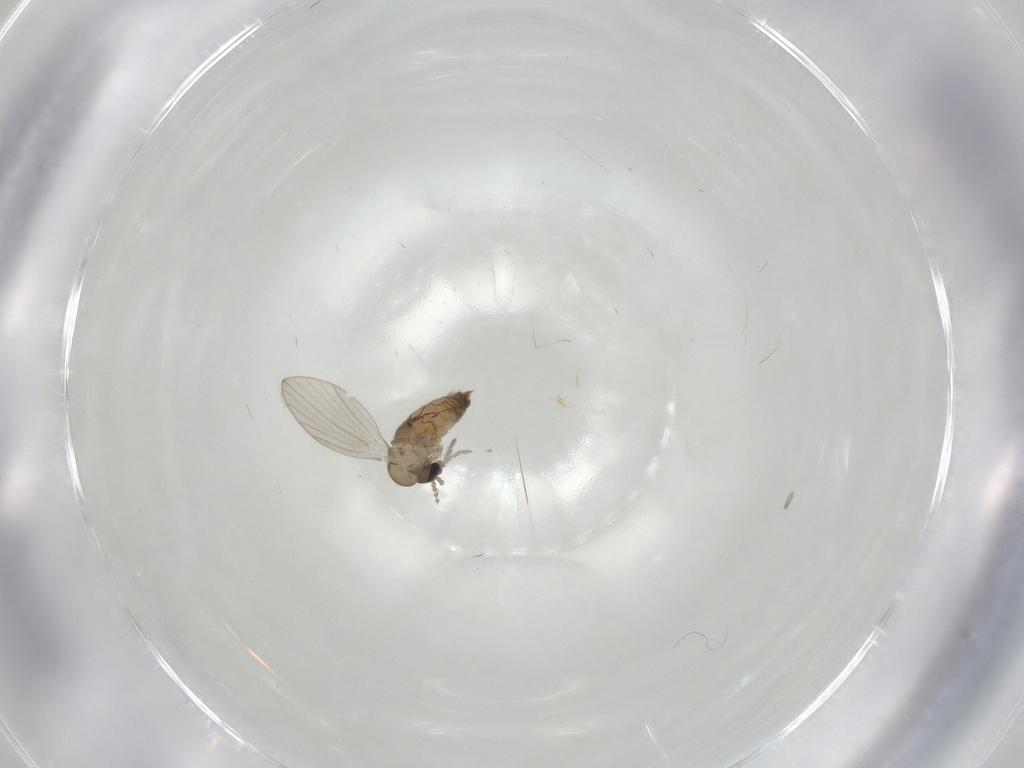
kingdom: Animalia
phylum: Arthropoda
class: Insecta
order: Diptera
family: Psychodidae
